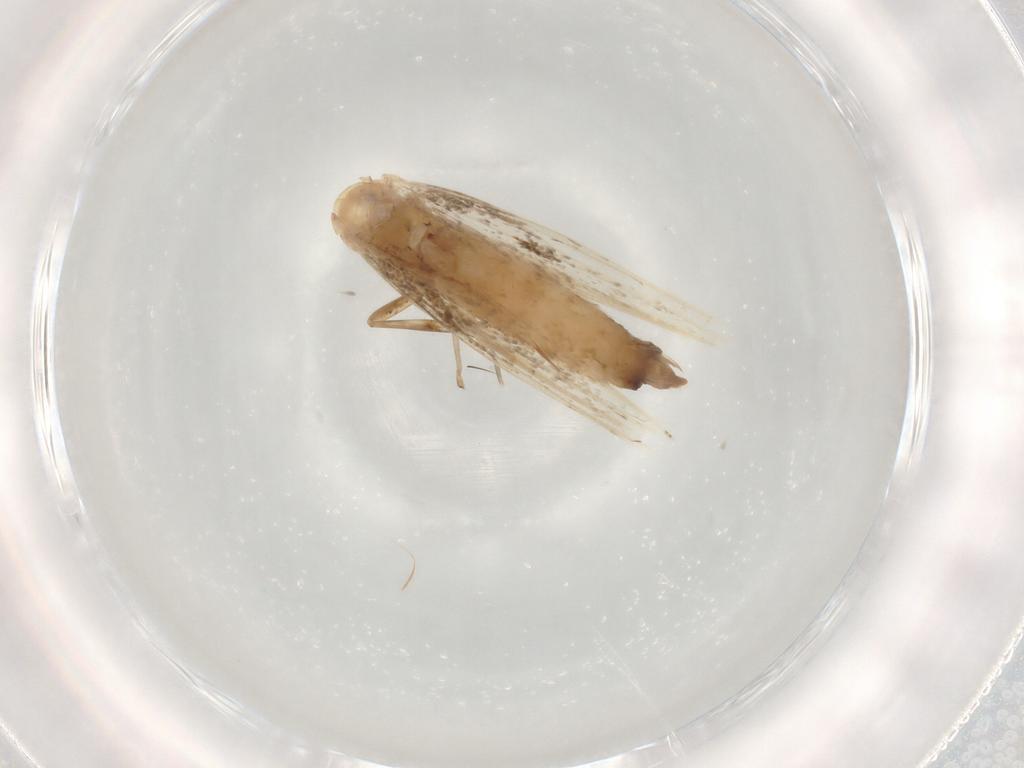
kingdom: Animalia
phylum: Arthropoda
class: Insecta
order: Lepidoptera
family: Gracillariidae
